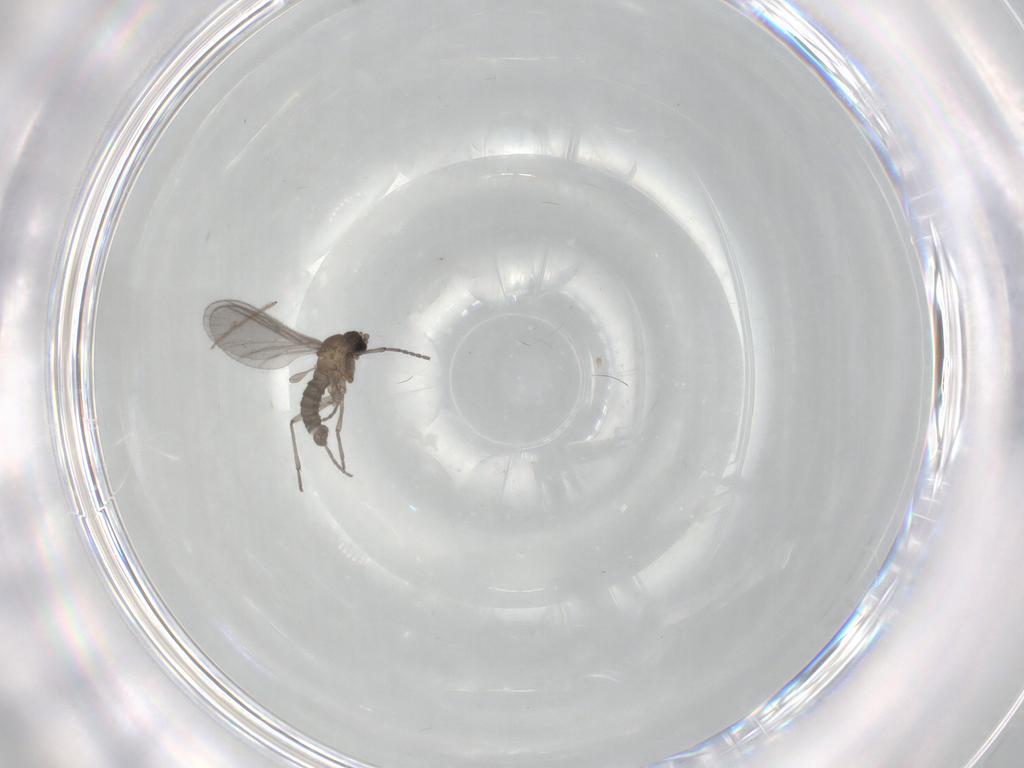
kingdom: Animalia
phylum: Arthropoda
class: Insecta
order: Diptera
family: Sciaridae
